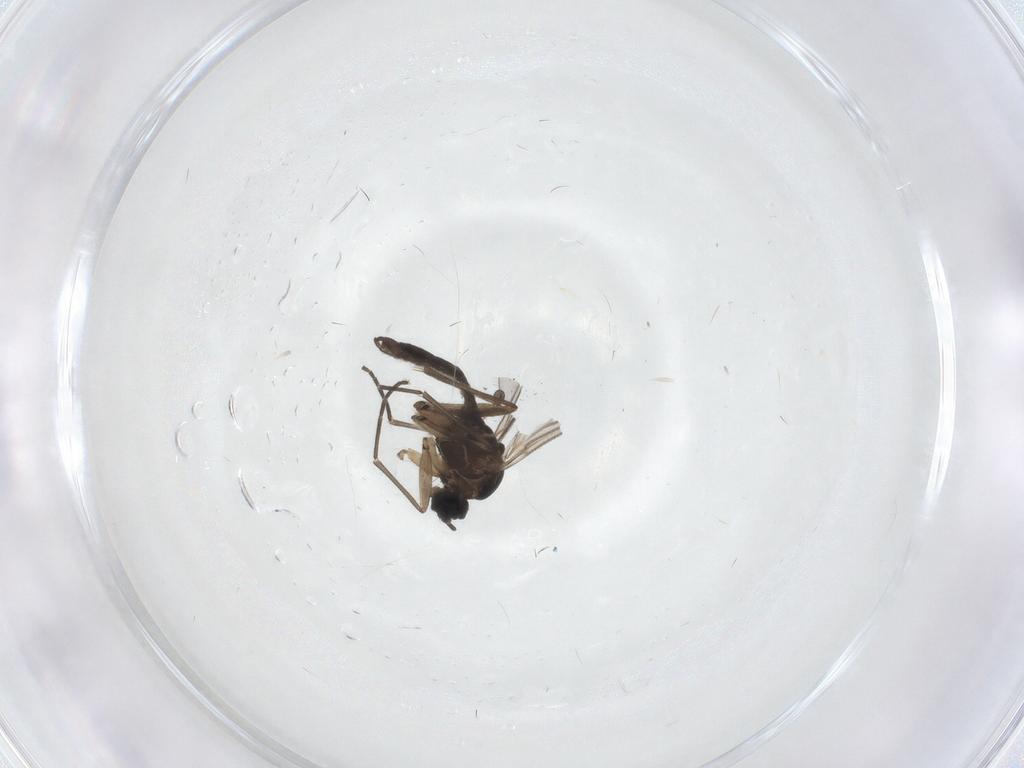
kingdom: Animalia
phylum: Arthropoda
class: Insecta
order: Diptera
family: Sciaridae
